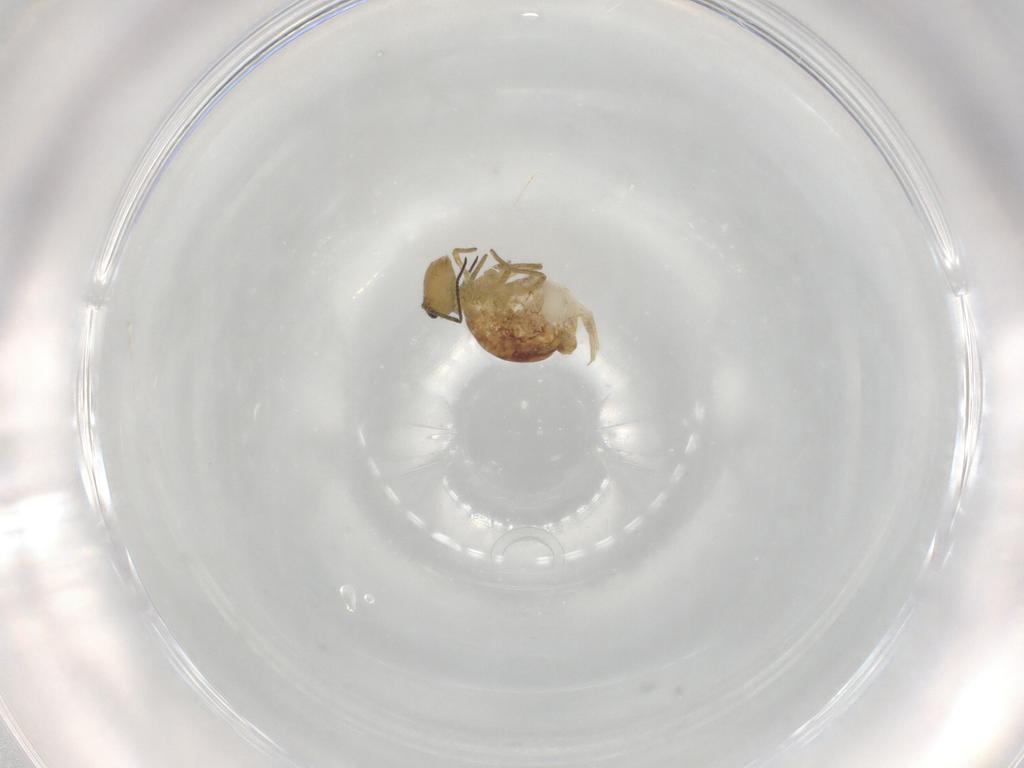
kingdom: Animalia
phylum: Arthropoda
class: Collembola
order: Symphypleona
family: Sminthuridae
